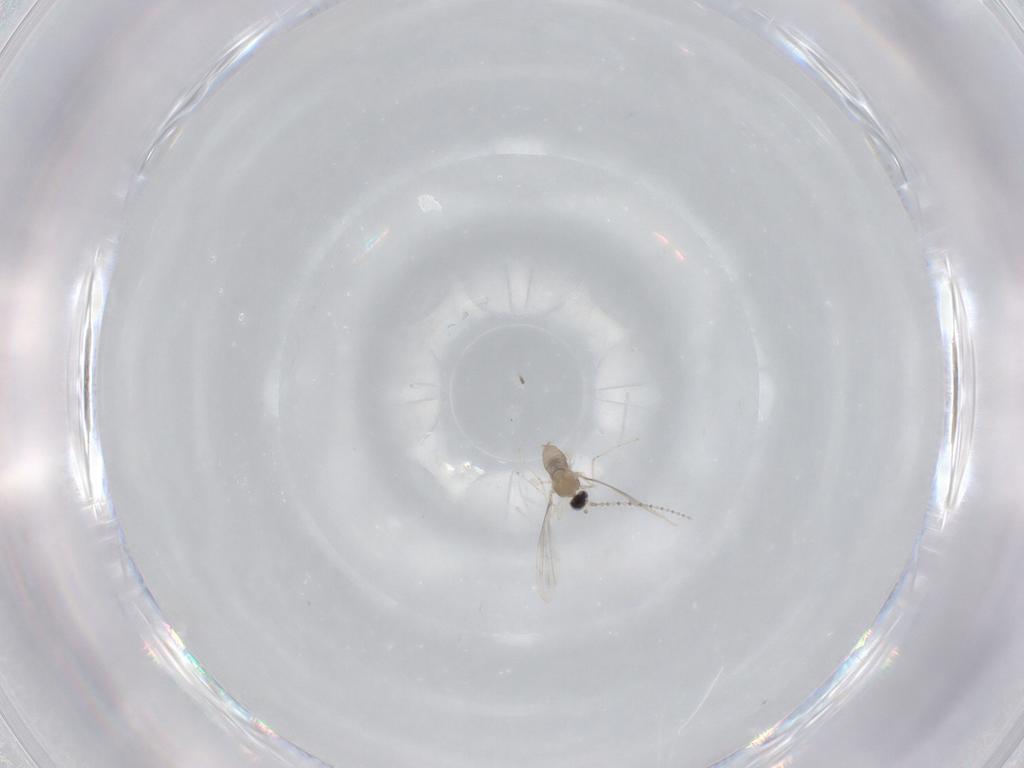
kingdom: Animalia
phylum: Arthropoda
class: Insecta
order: Diptera
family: Cecidomyiidae
